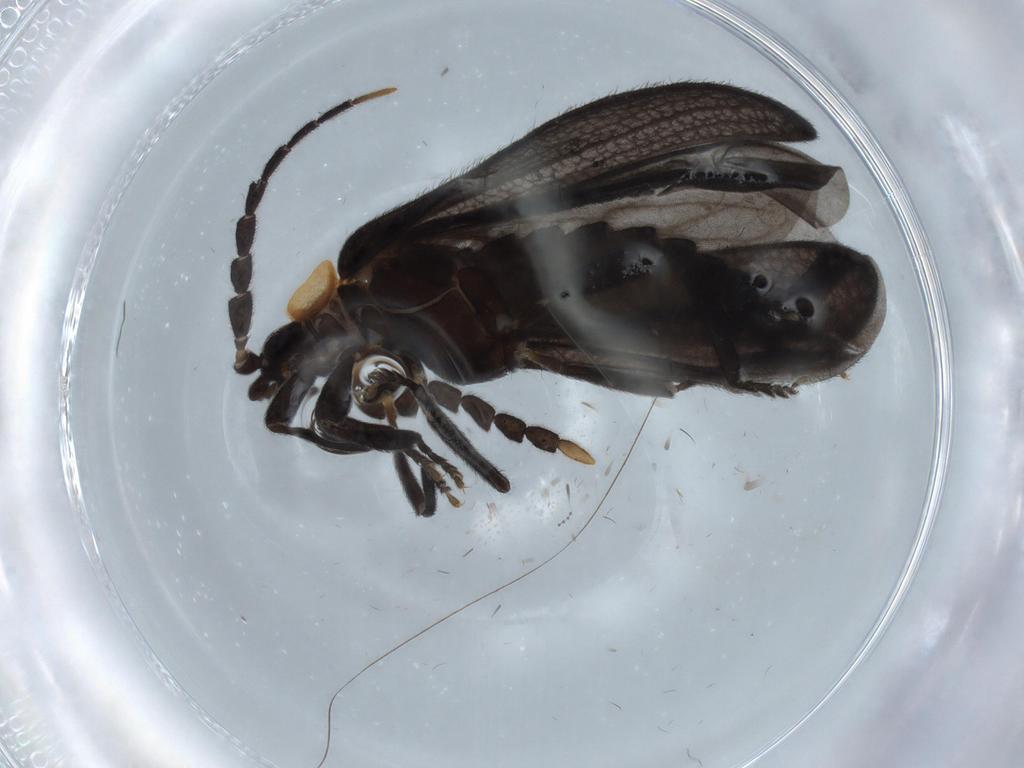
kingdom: Animalia
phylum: Arthropoda
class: Insecta
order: Coleoptera
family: Lycidae
